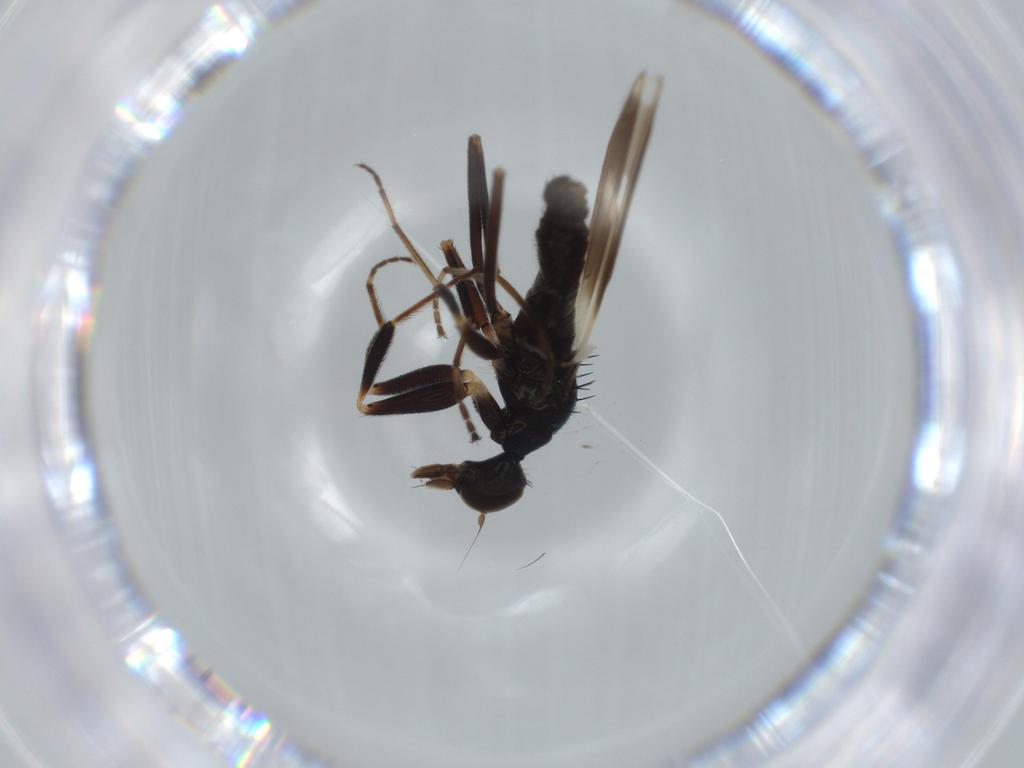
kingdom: Animalia
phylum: Arthropoda
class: Insecta
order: Diptera
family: Hybotidae
